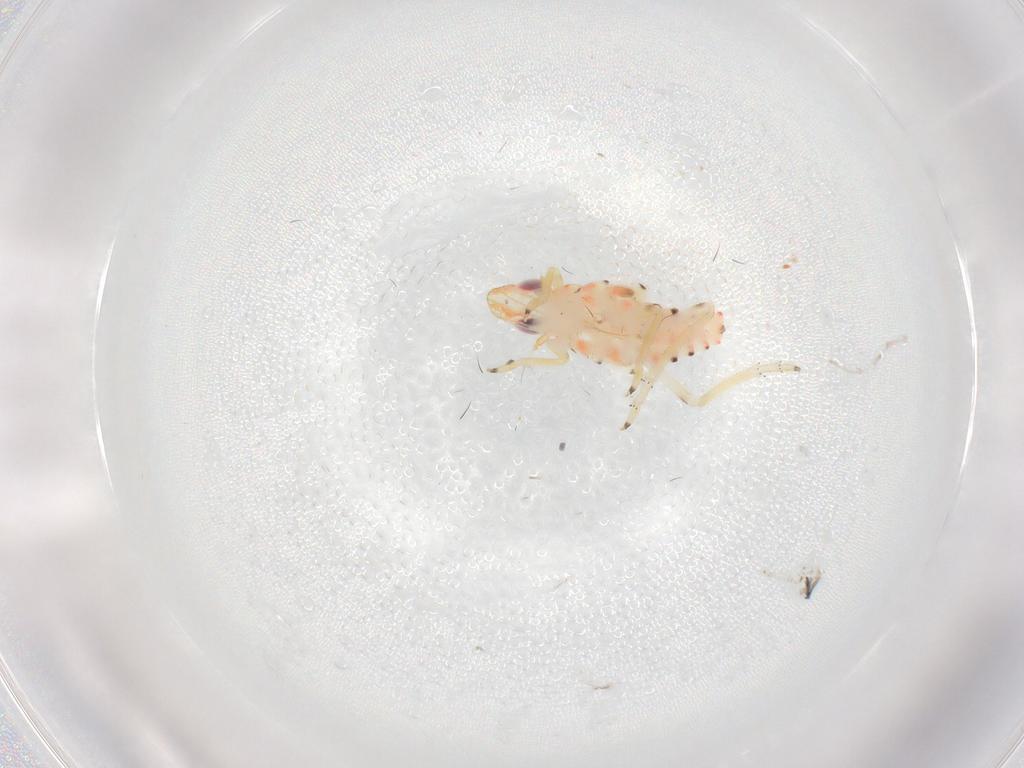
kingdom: Animalia
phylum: Arthropoda
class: Insecta
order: Hemiptera
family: Tropiduchidae
